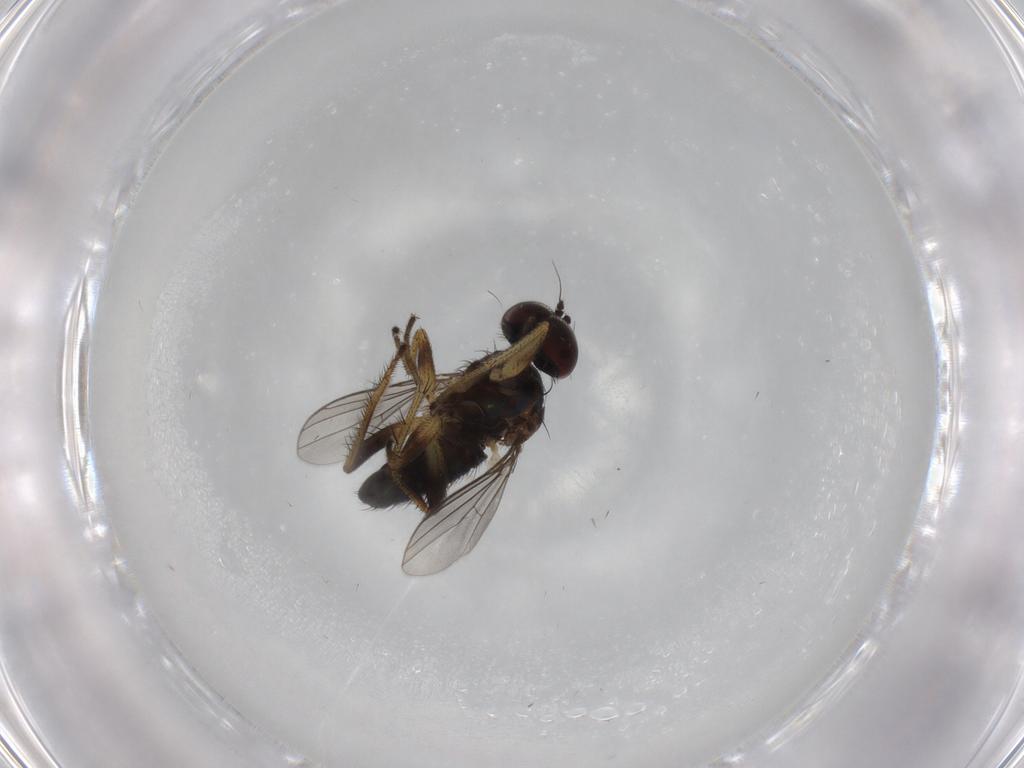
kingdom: Animalia
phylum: Arthropoda
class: Insecta
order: Diptera
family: Dolichopodidae
